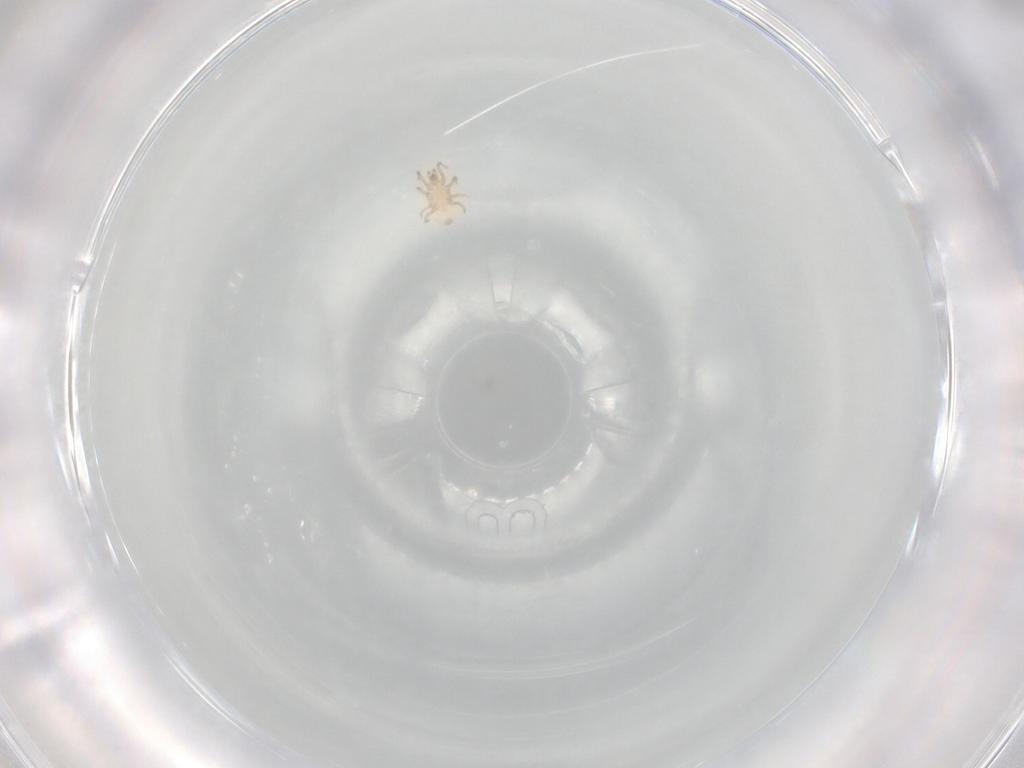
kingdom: Animalia
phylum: Arthropoda
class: Arachnida
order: Mesostigmata
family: Ascidae
